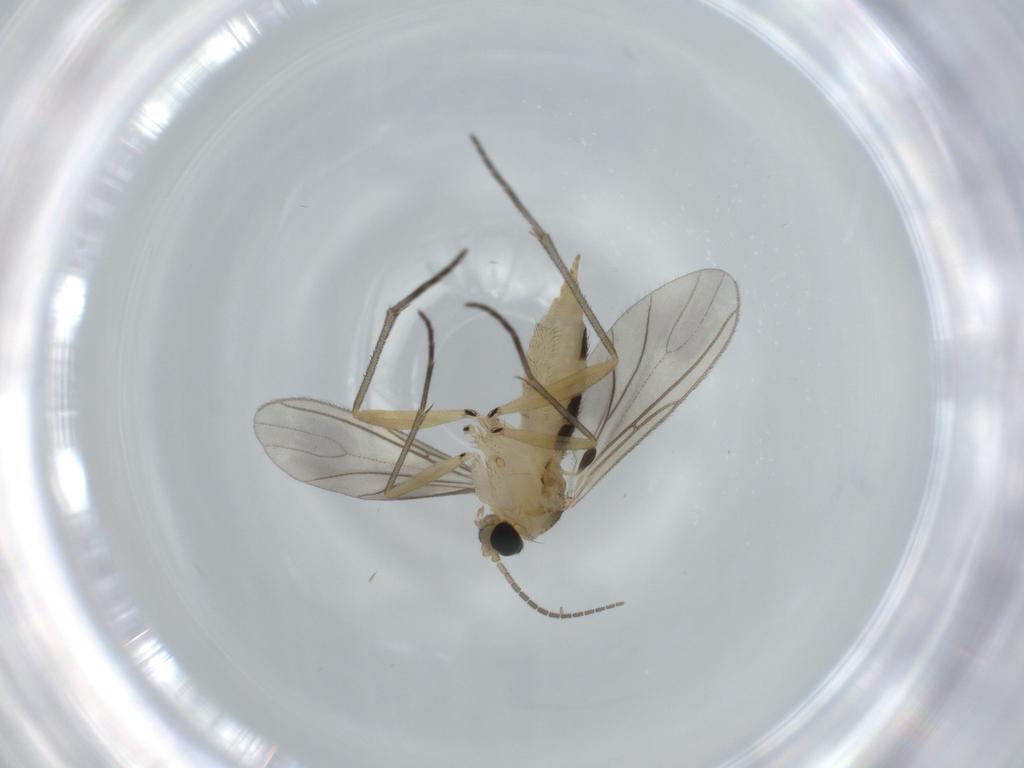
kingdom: Animalia
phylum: Arthropoda
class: Insecta
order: Diptera
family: Sciaridae
